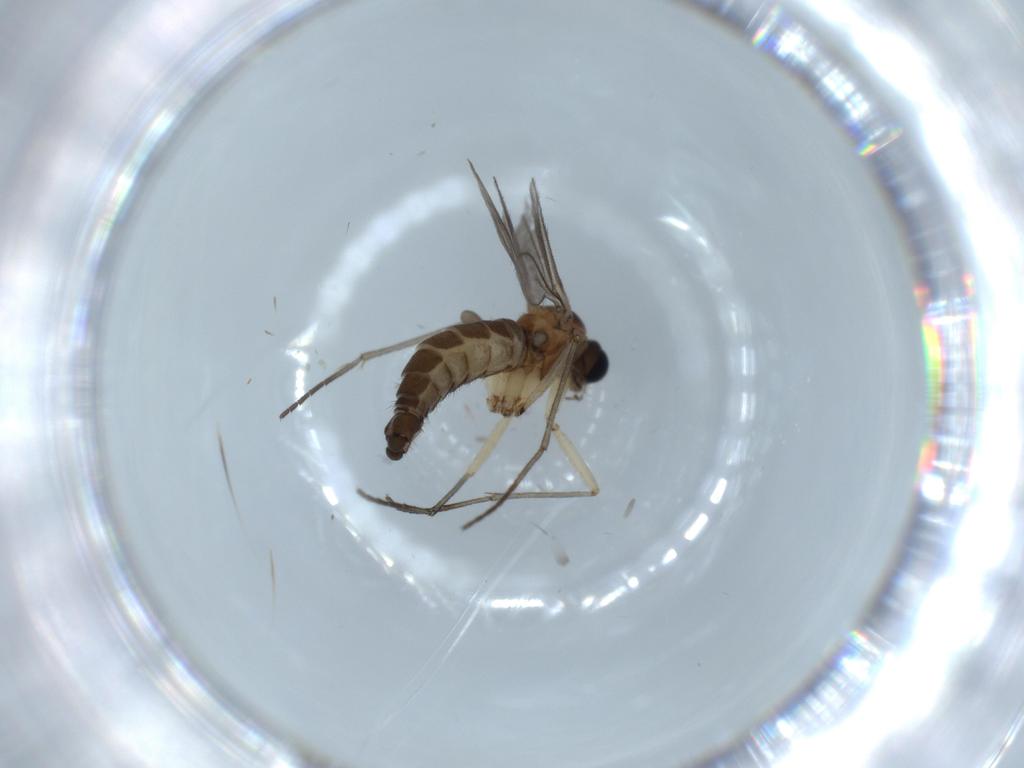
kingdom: Animalia
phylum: Arthropoda
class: Insecta
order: Diptera
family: Sciaridae
